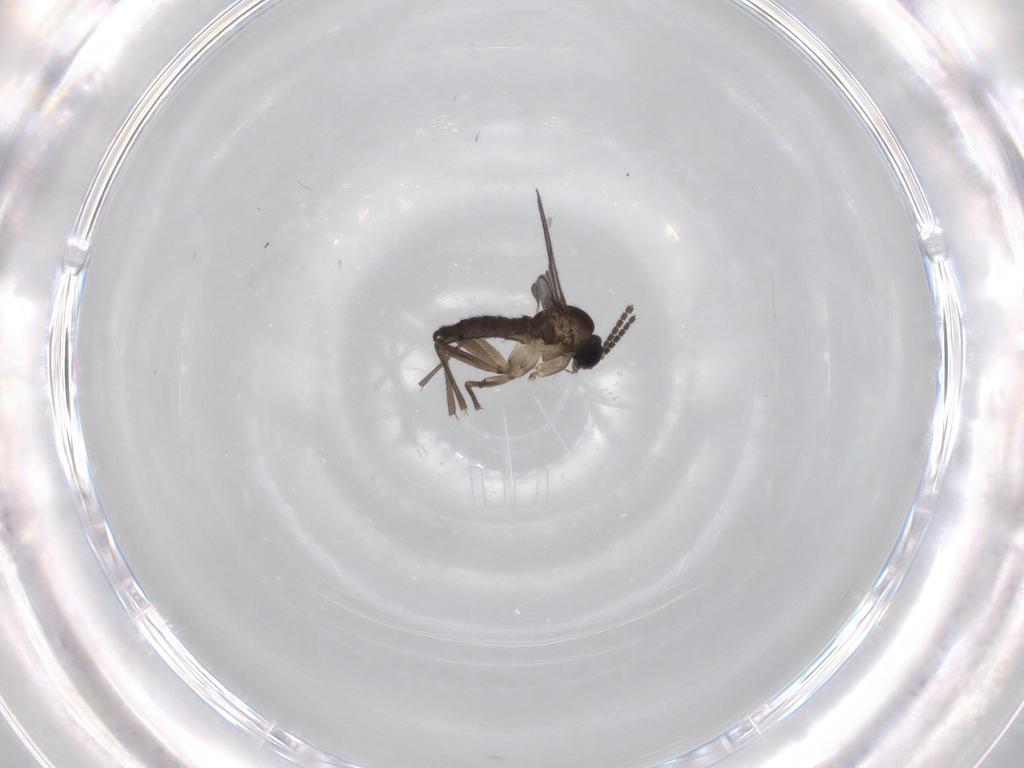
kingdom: Animalia
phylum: Arthropoda
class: Insecta
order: Diptera
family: Sciaridae
